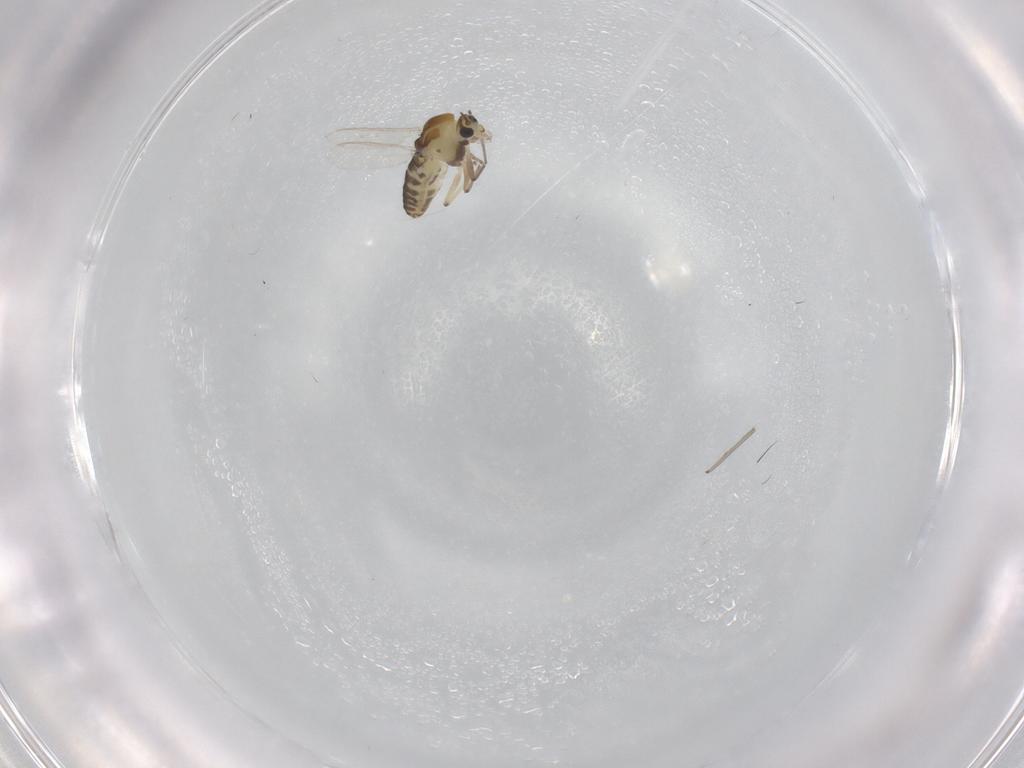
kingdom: Animalia
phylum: Arthropoda
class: Insecta
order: Diptera
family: Chironomidae
